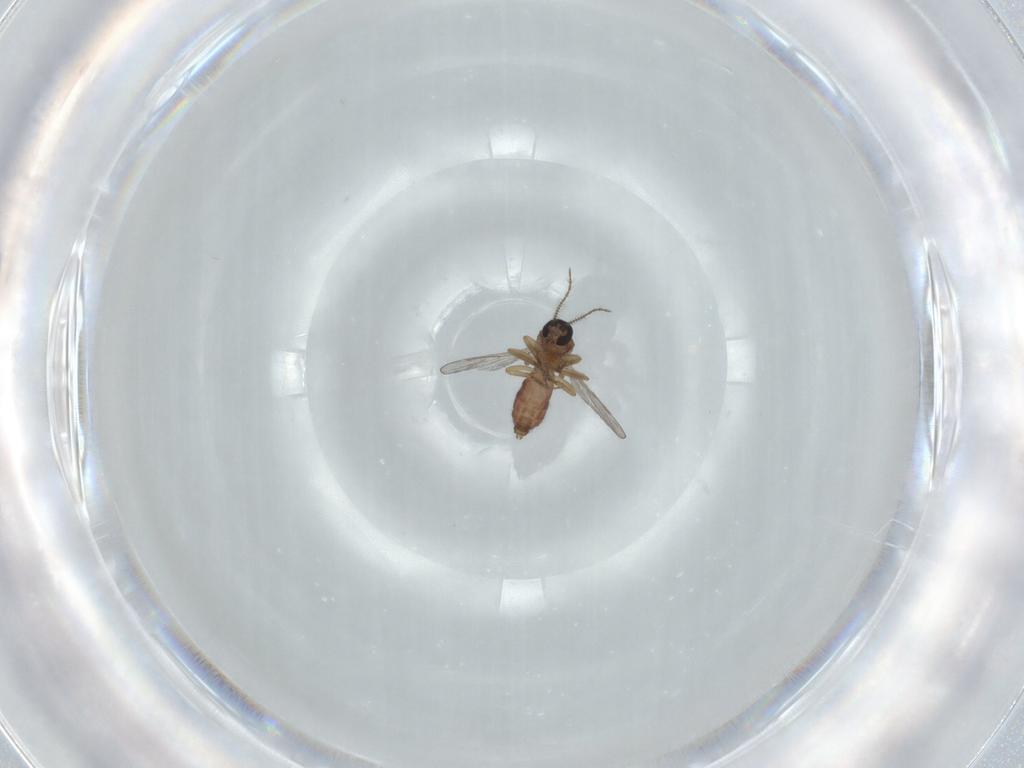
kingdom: Animalia
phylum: Arthropoda
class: Insecta
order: Diptera
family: Ceratopogonidae
